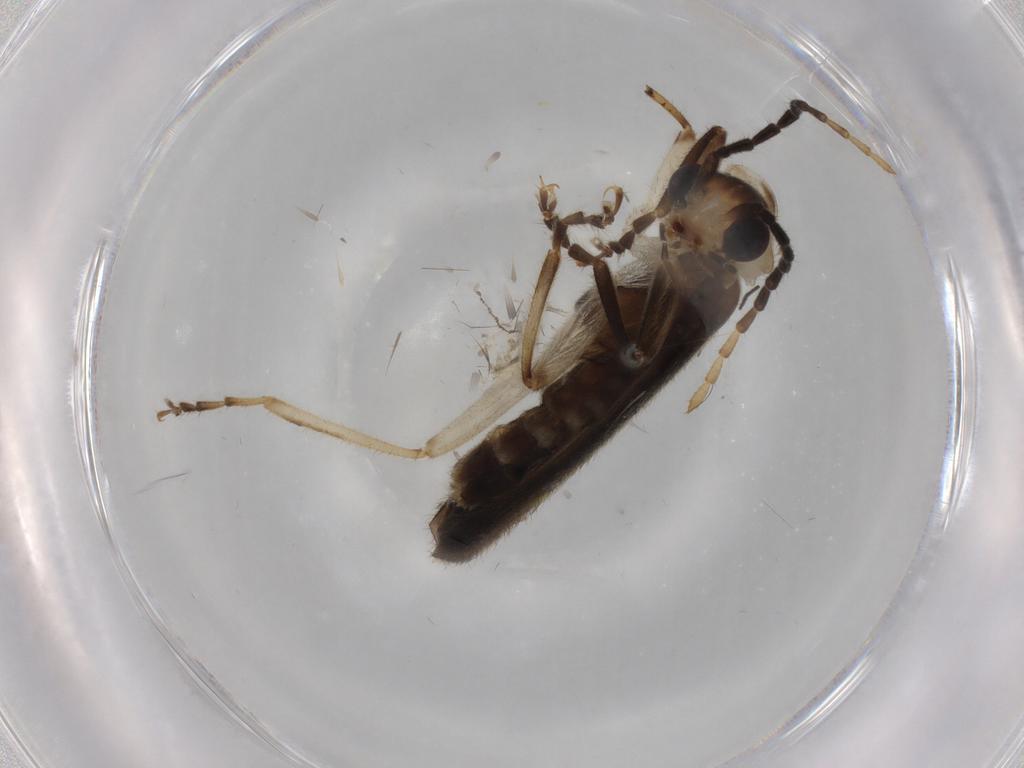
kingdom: Animalia
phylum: Arthropoda
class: Insecta
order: Coleoptera
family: Cantharidae
